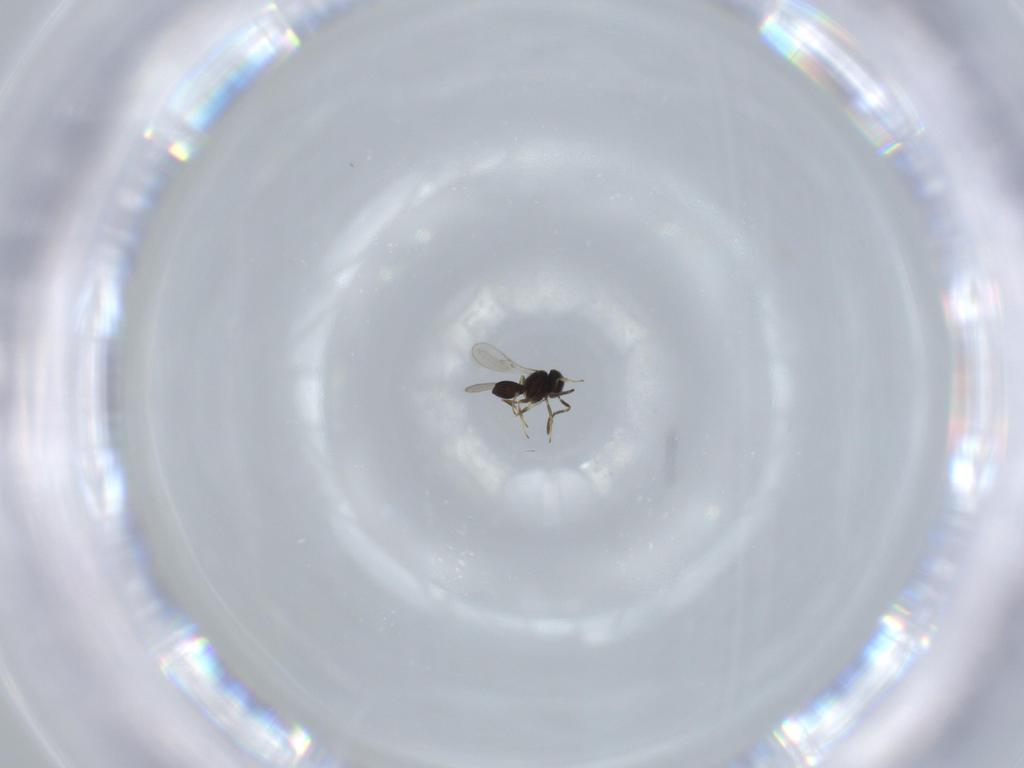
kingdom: Animalia
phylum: Arthropoda
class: Insecta
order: Hymenoptera
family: Scelionidae
